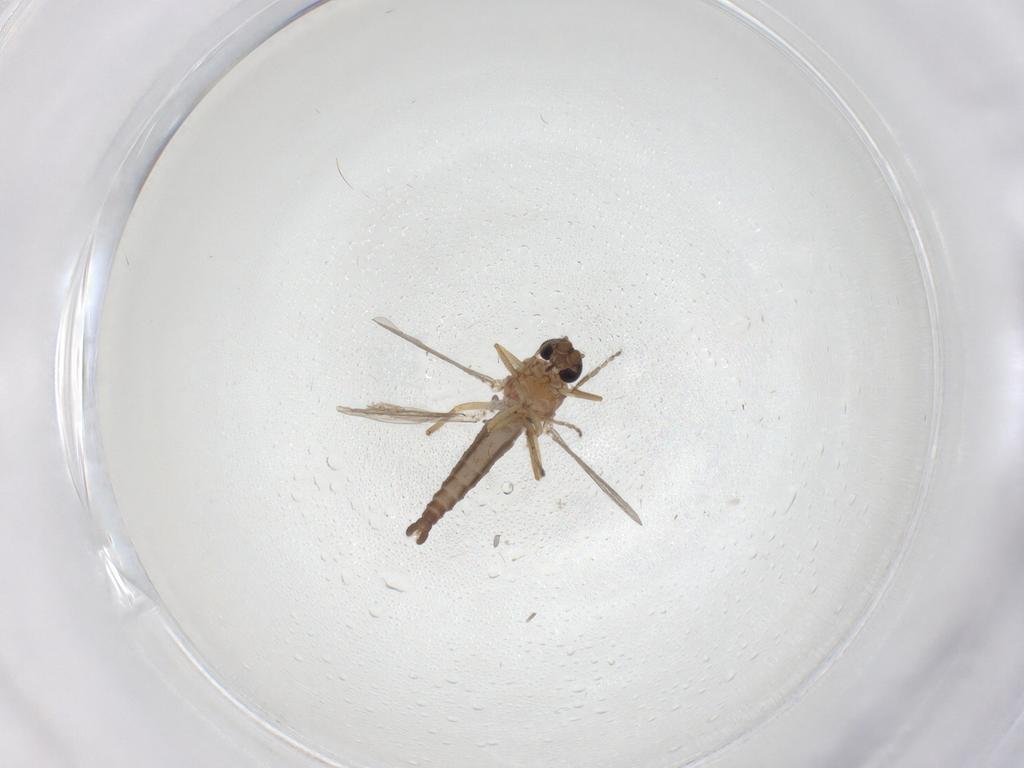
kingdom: Animalia
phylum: Arthropoda
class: Insecta
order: Diptera
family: Ceratopogonidae
